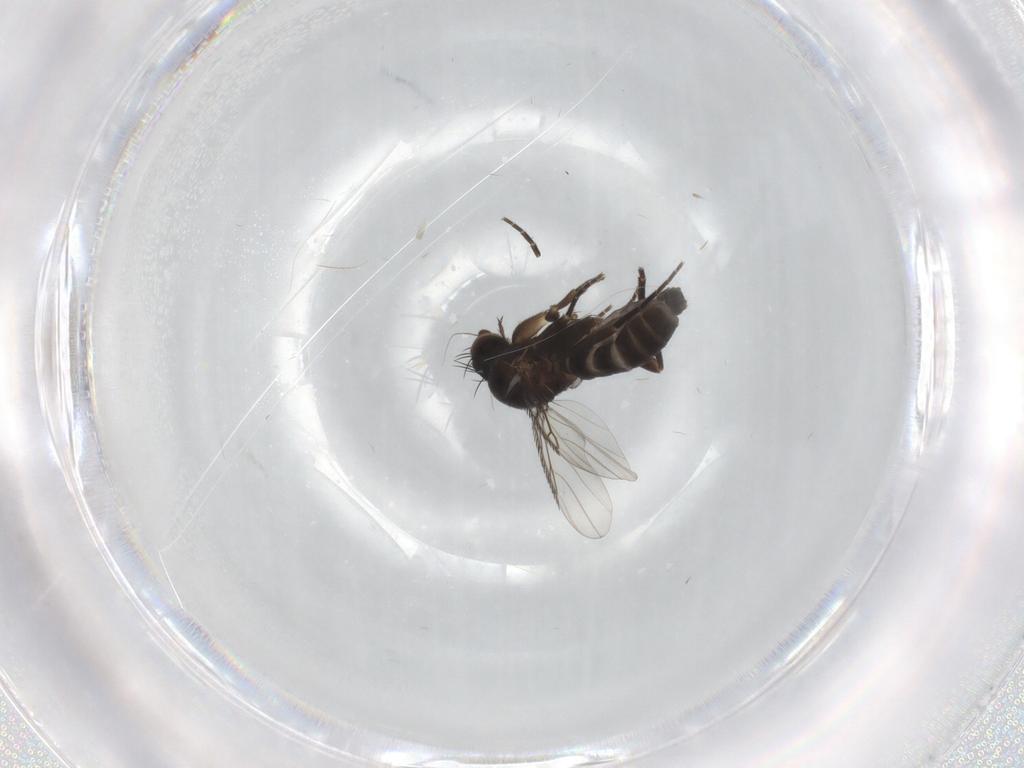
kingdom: Animalia
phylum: Arthropoda
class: Insecta
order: Diptera
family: Phoridae
